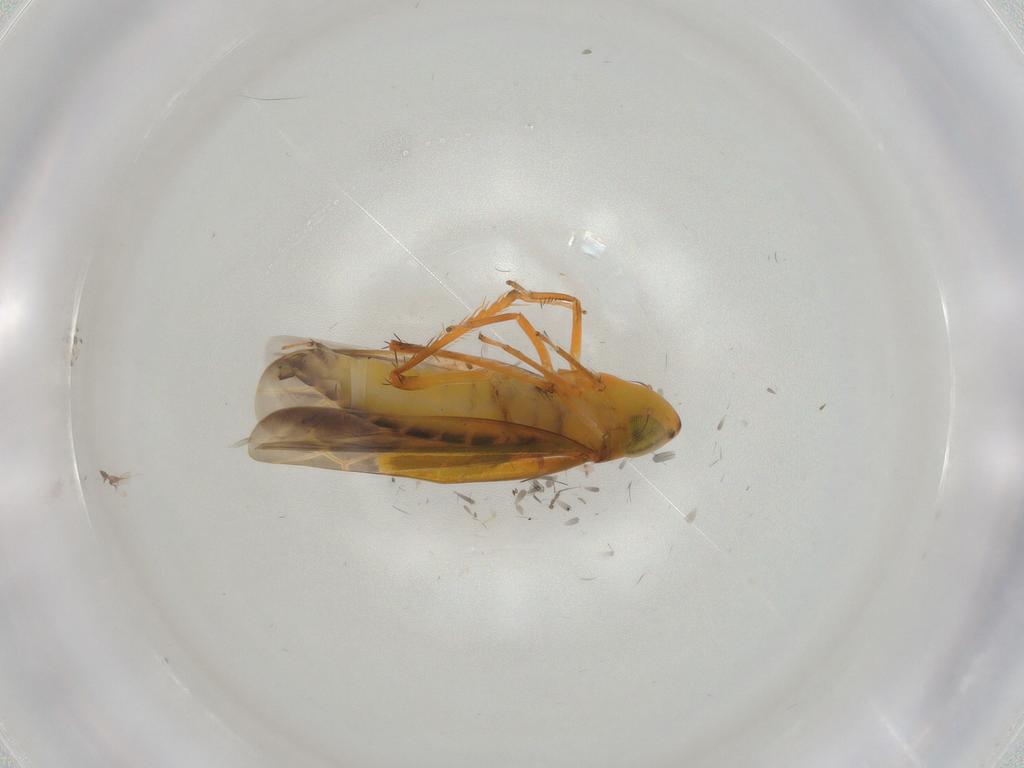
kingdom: Animalia
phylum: Arthropoda
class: Insecta
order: Hemiptera
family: Cicadellidae
